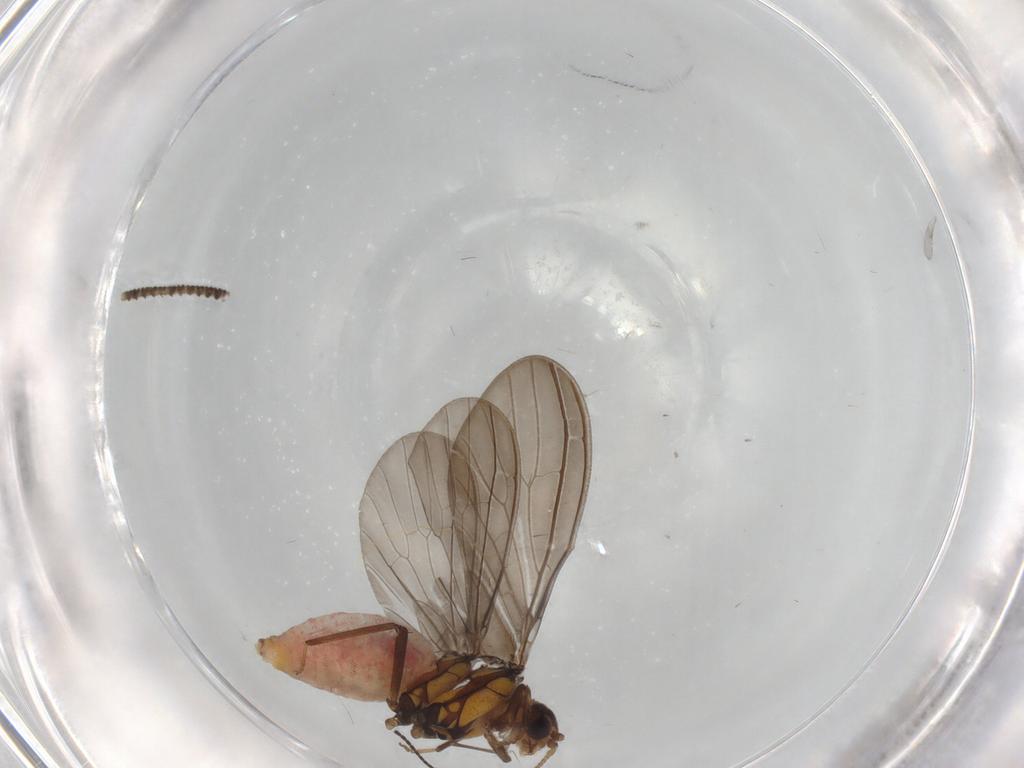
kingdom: Animalia
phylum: Arthropoda
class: Insecta
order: Neuroptera
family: Coniopterygidae
